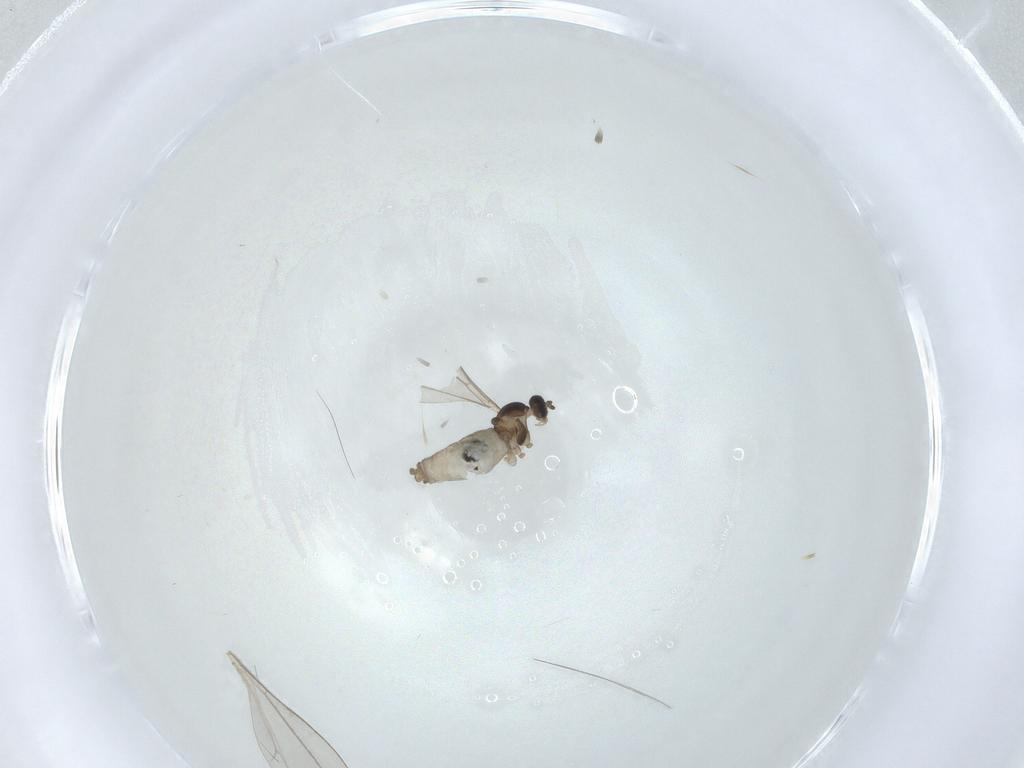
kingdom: Animalia
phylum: Arthropoda
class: Insecta
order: Diptera
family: Cecidomyiidae
